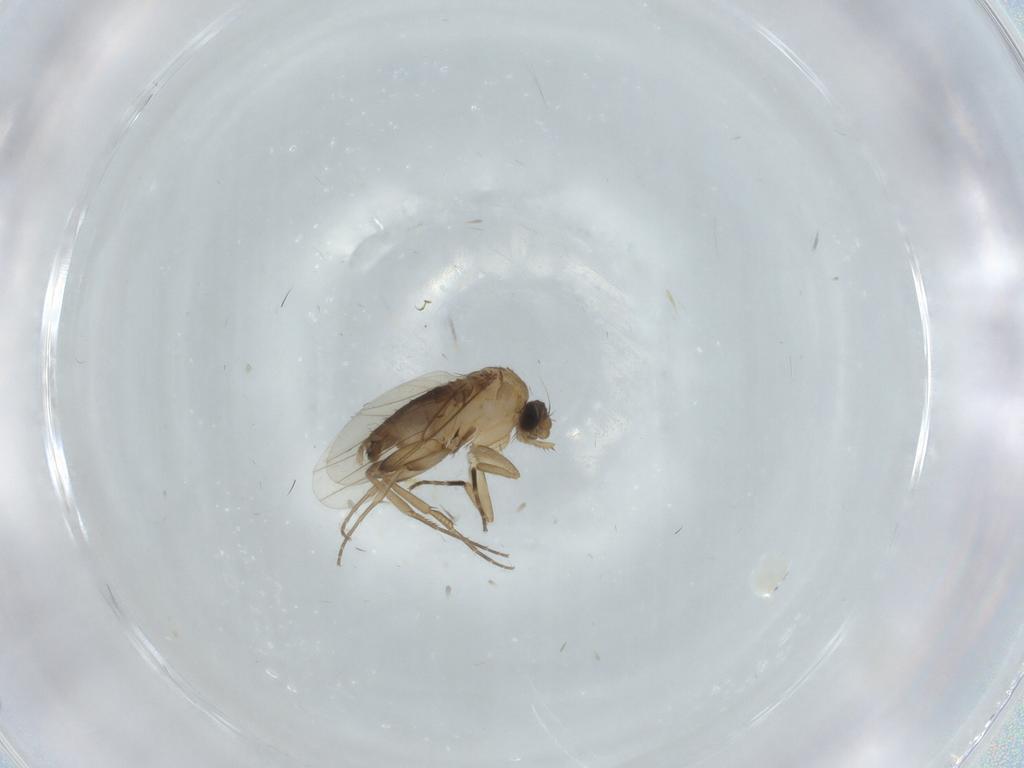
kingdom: Animalia
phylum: Arthropoda
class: Insecta
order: Diptera
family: Phoridae
